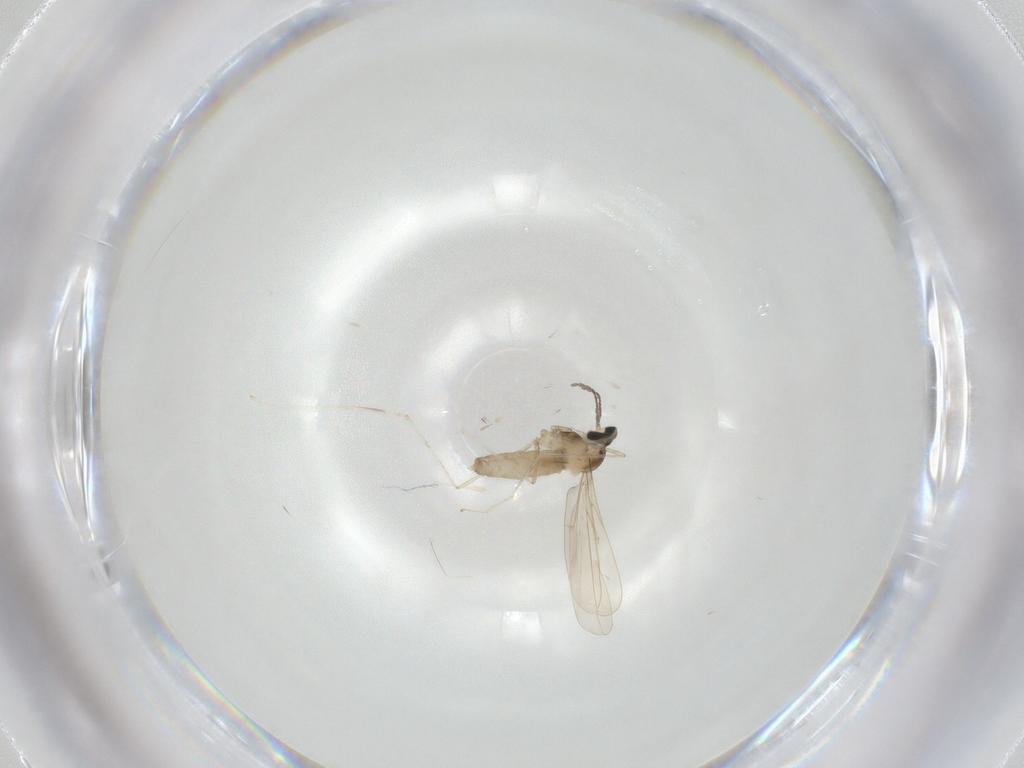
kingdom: Animalia
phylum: Arthropoda
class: Insecta
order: Diptera
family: Cecidomyiidae
